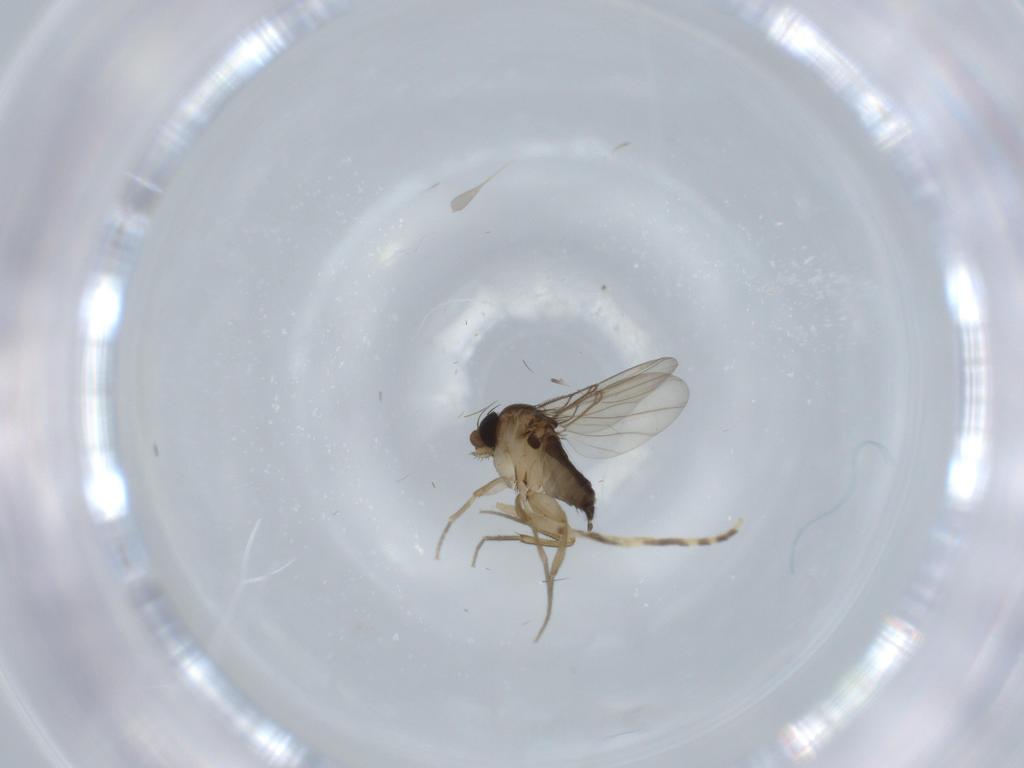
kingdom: Animalia
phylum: Arthropoda
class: Insecta
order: Diptera
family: Phoridae
